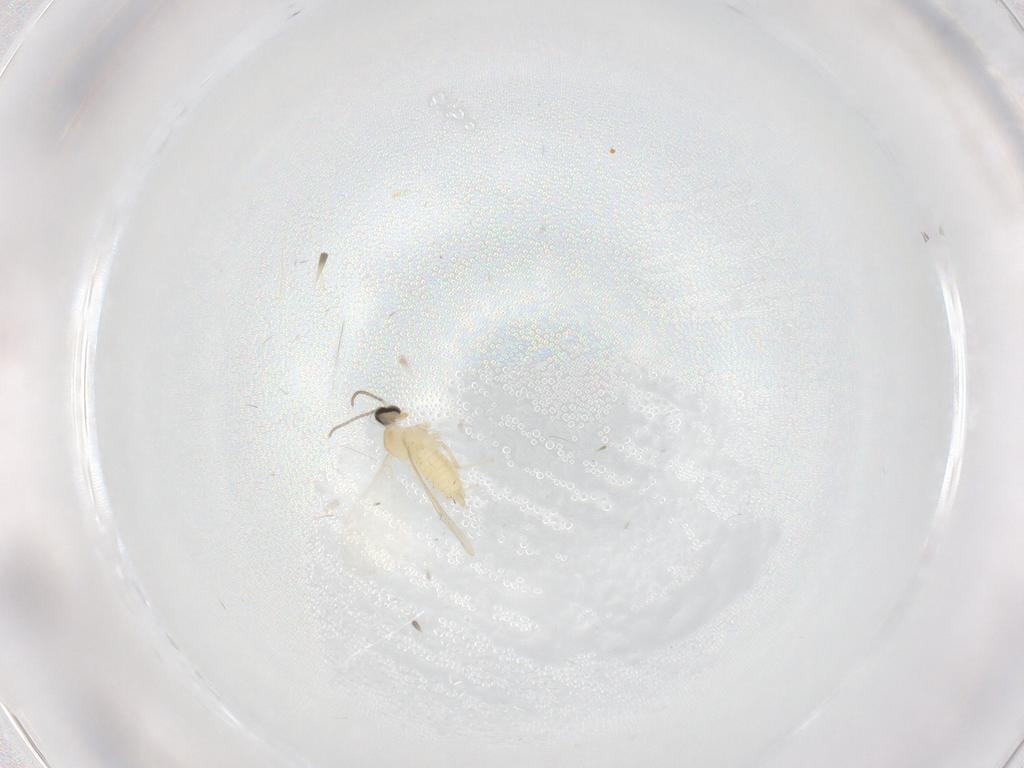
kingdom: Animalia
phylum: Arthropoda
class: Insecta
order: Diptera
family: Cecidomyiidae
